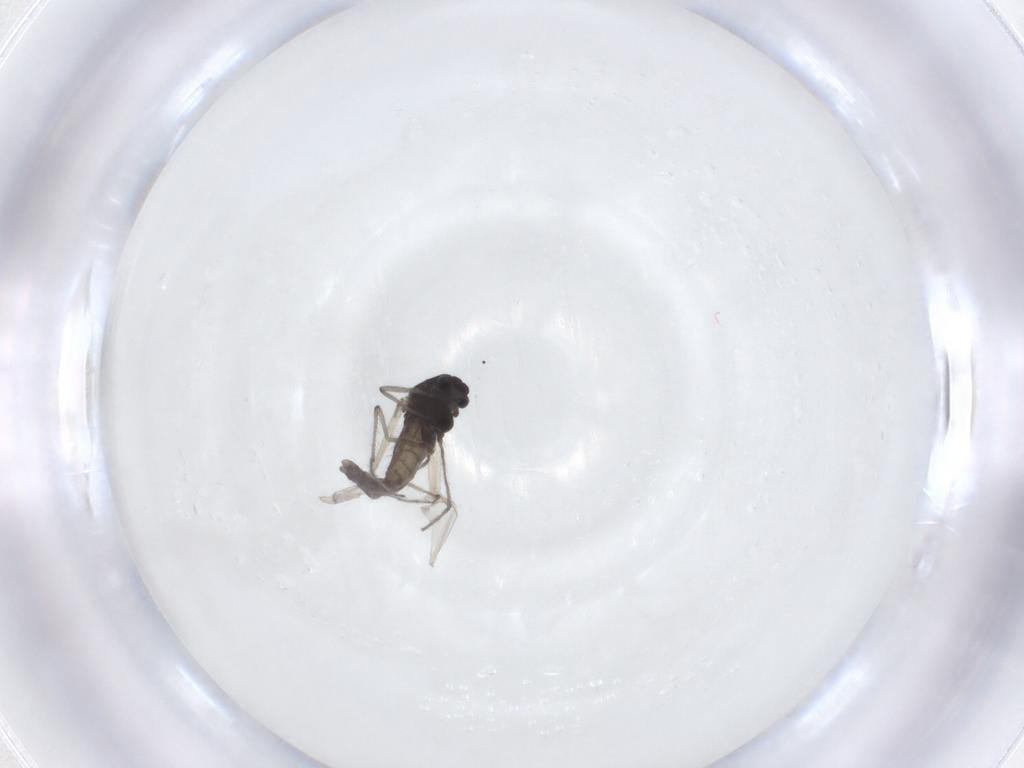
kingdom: Animalia
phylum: Arthropoda
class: Insecta
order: Diptera
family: Chironomidae
